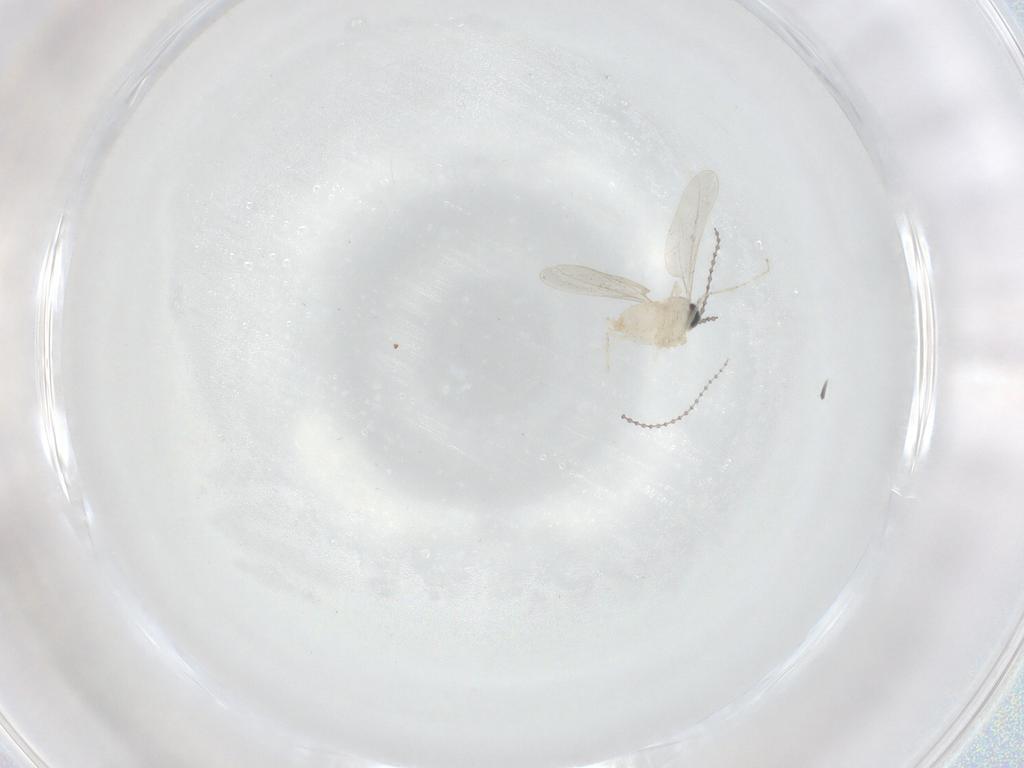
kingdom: Animalia
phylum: Arthropoda
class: Insecta
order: Diptera
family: Cecidomyiidae
